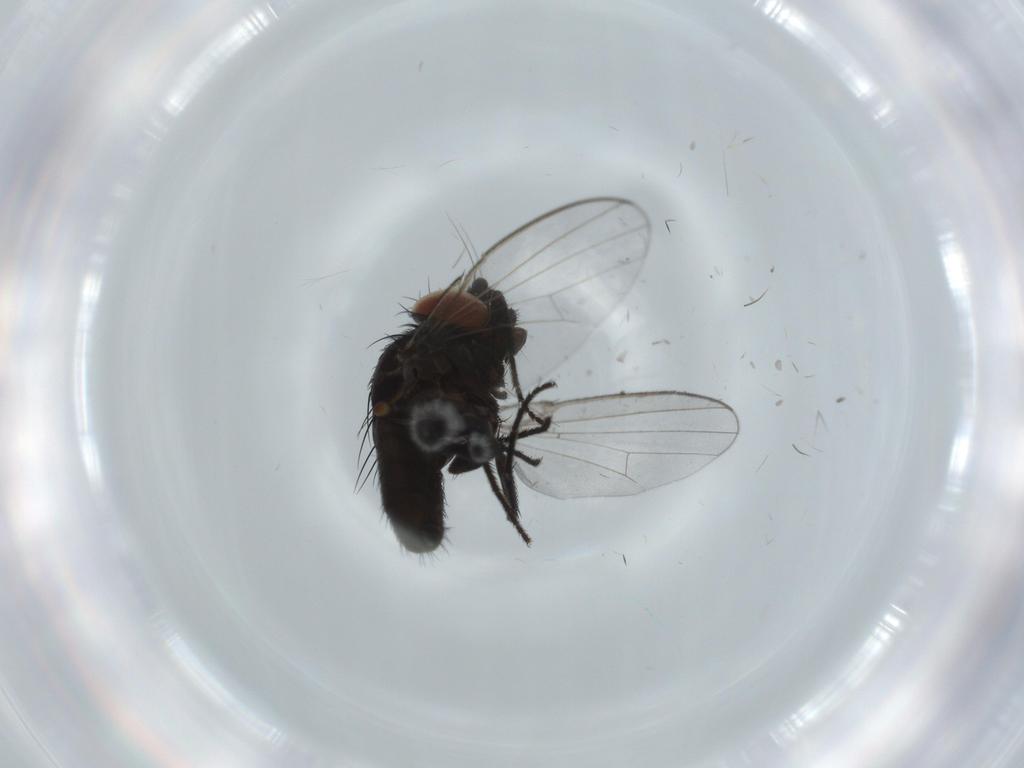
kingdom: Animalia
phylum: Arthropoda
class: Insecta
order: Diptera
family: Milichiidae
